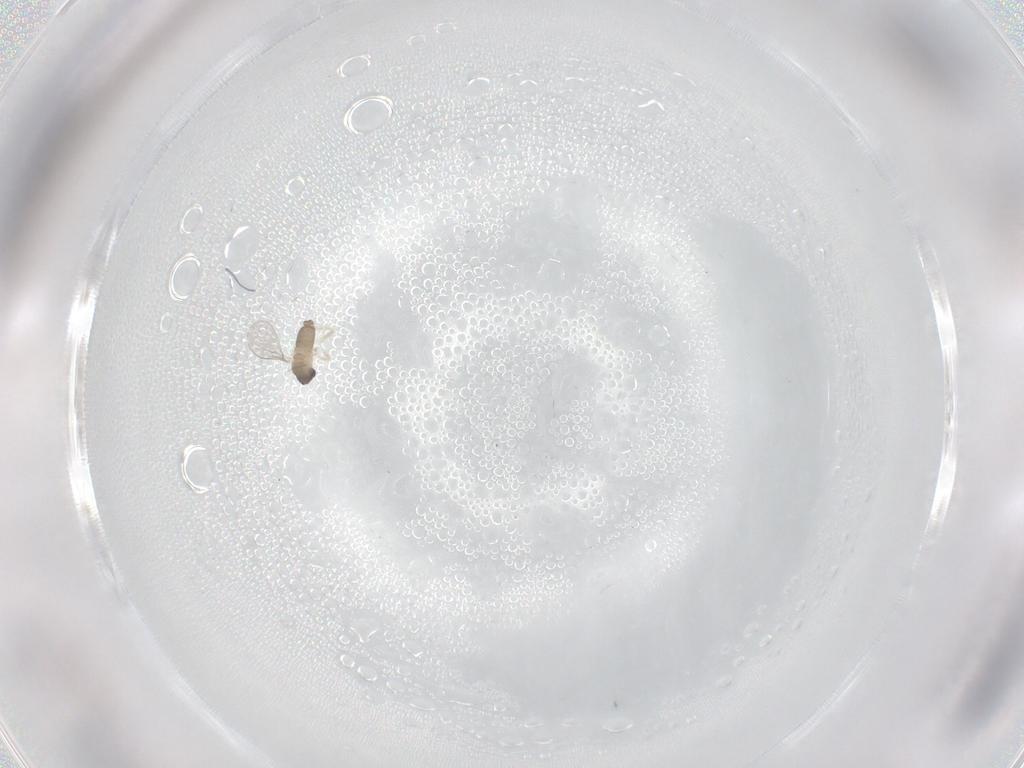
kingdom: Animalia
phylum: Arthropoda
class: Insecta
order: Diptera
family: Cecidomyiidae
